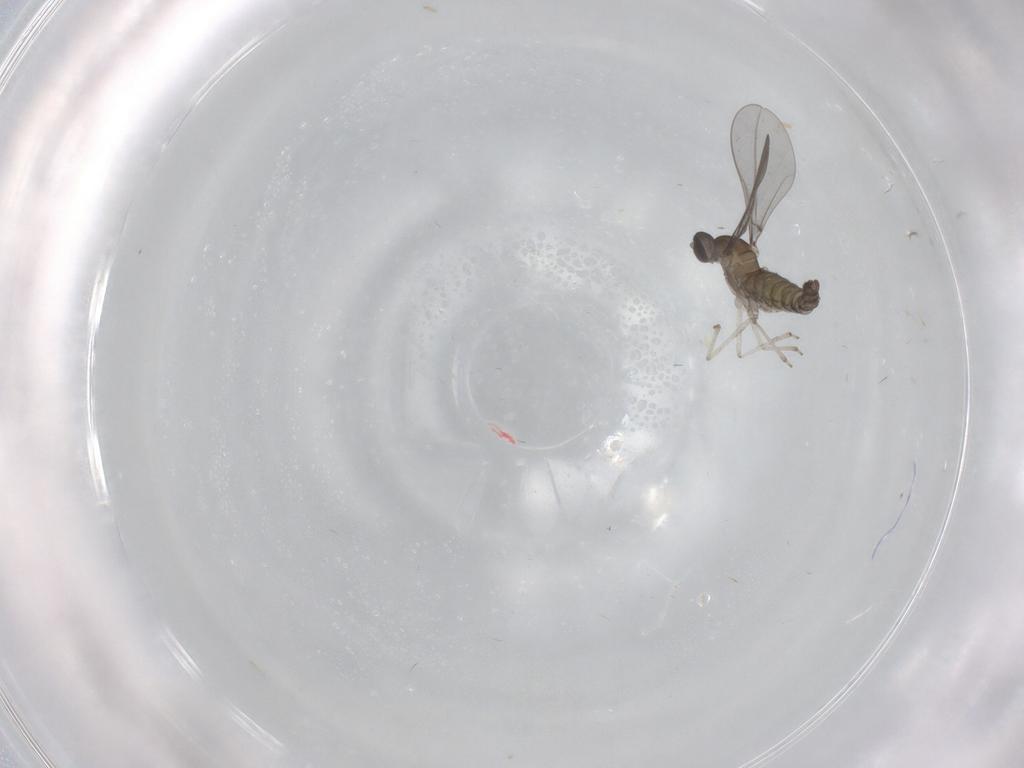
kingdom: Animalia
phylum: Arthropoda
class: Insecta
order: Diptera
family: Cecidomyiidae
